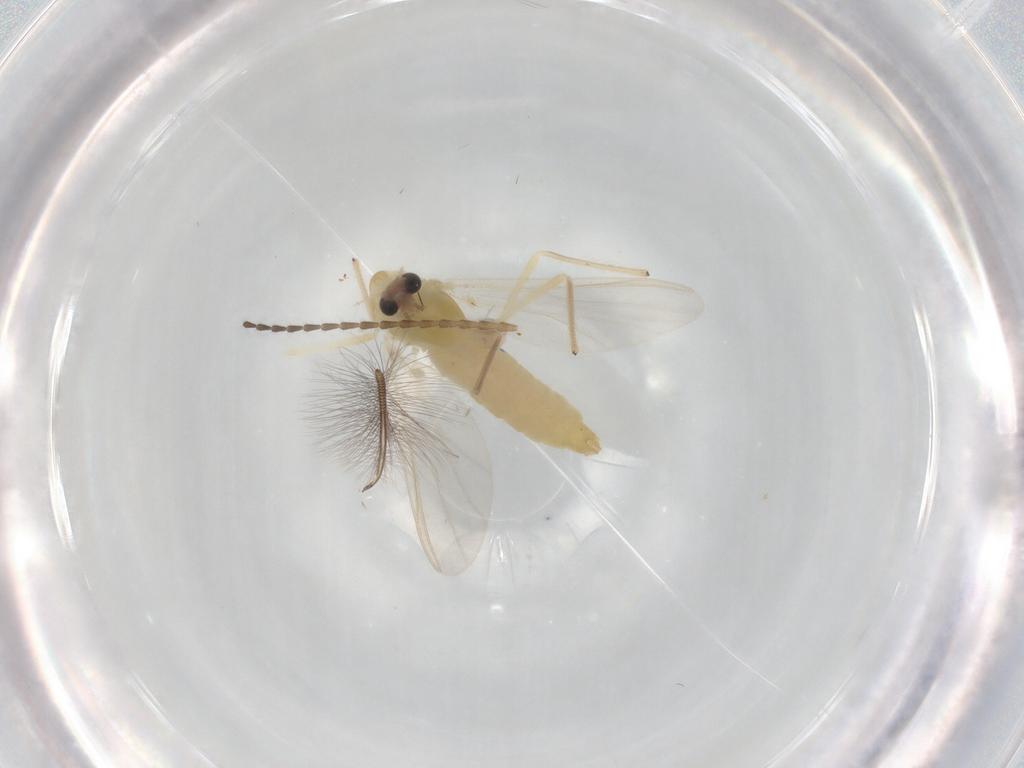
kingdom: Animalia
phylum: Arthropoda
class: Insecta
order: Diptera
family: Chironomidae
